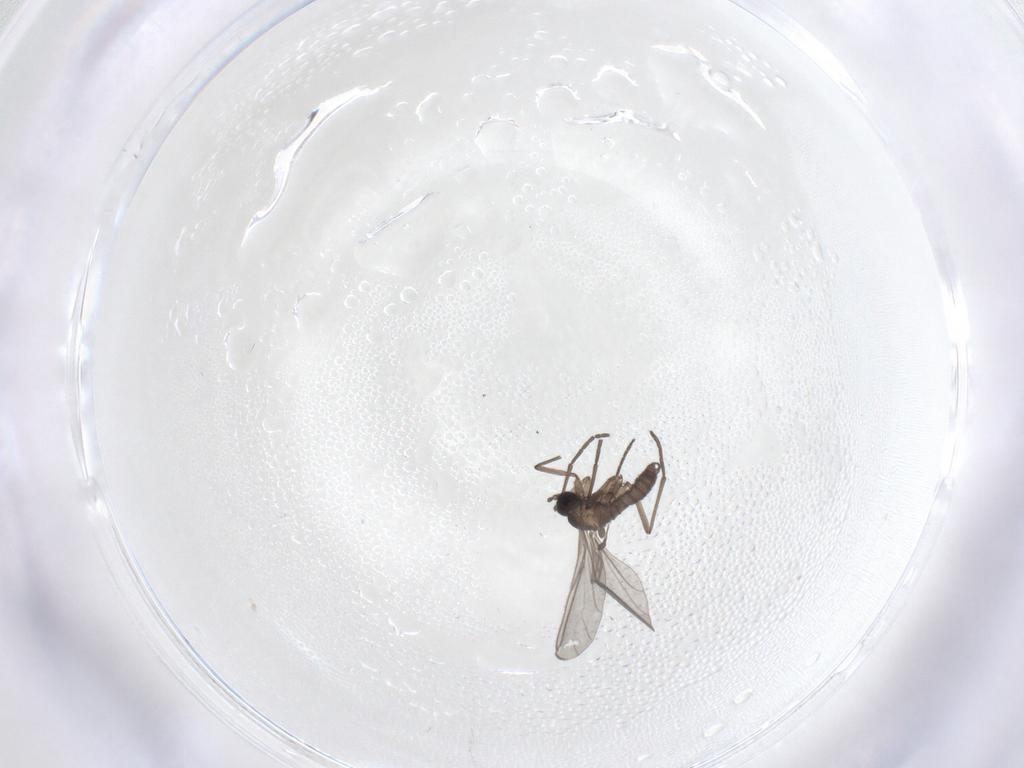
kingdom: Animalia
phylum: Arthropoda
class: Insecta
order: Diptera
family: Sciaridae
